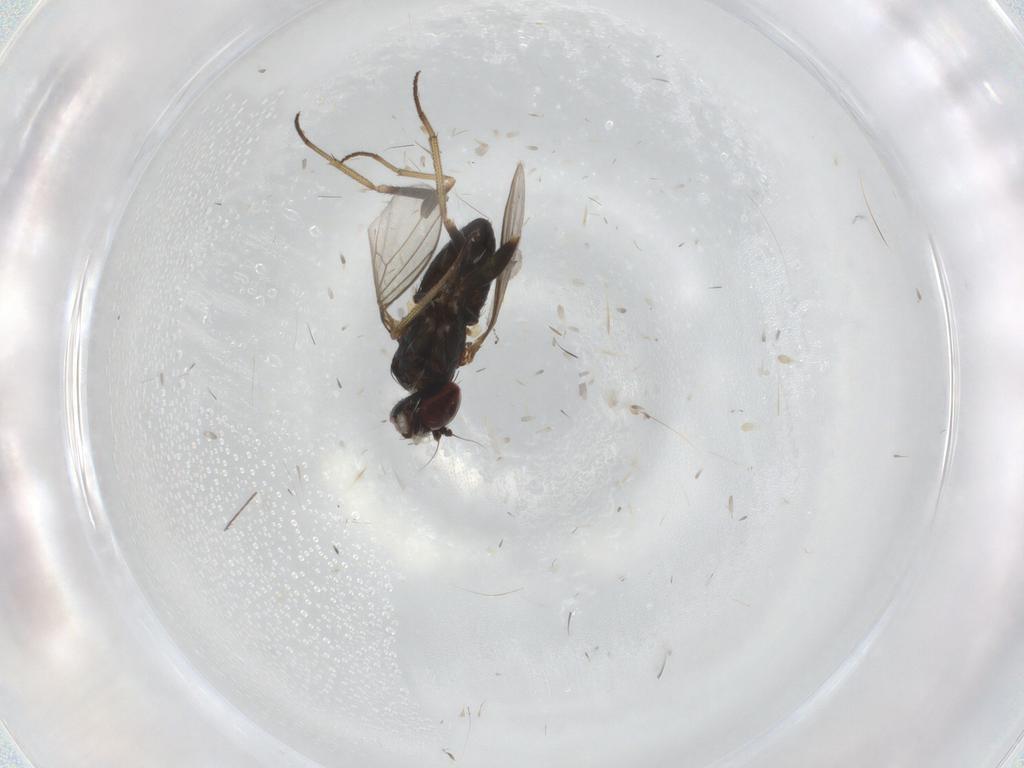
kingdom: Animalia
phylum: Arthropoda
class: Insecta
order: Diptera
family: Dolichopodidae
